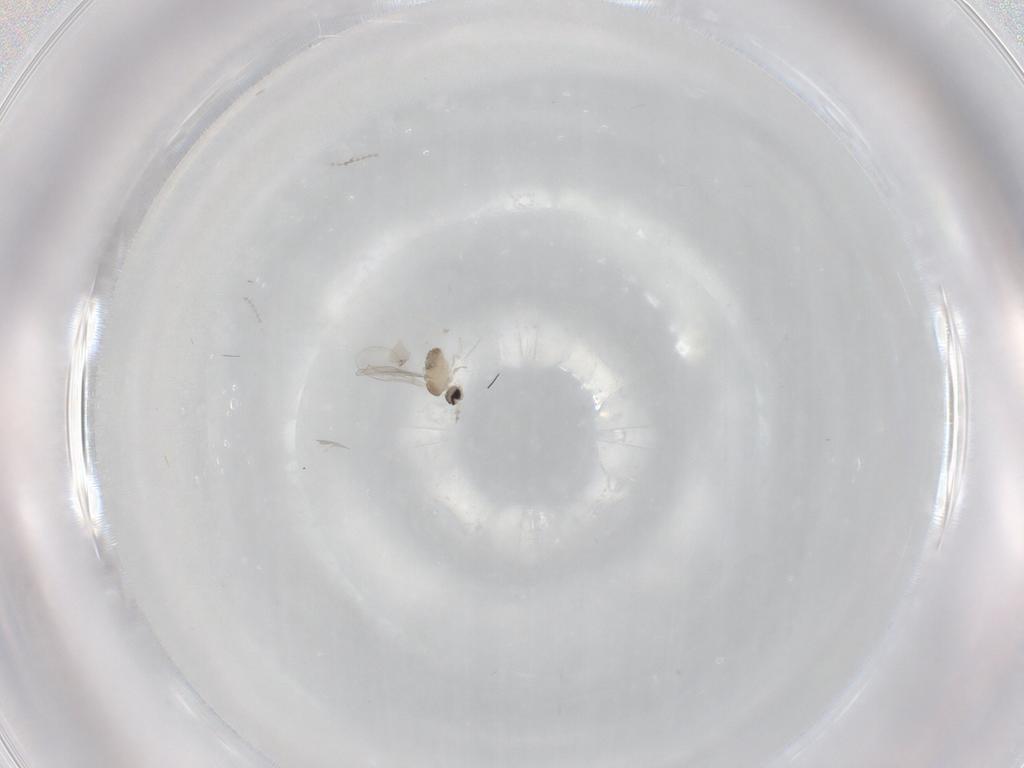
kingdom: Animalia
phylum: Arthropoda
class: Insecta
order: Diptera
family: Cecidomyiidae
